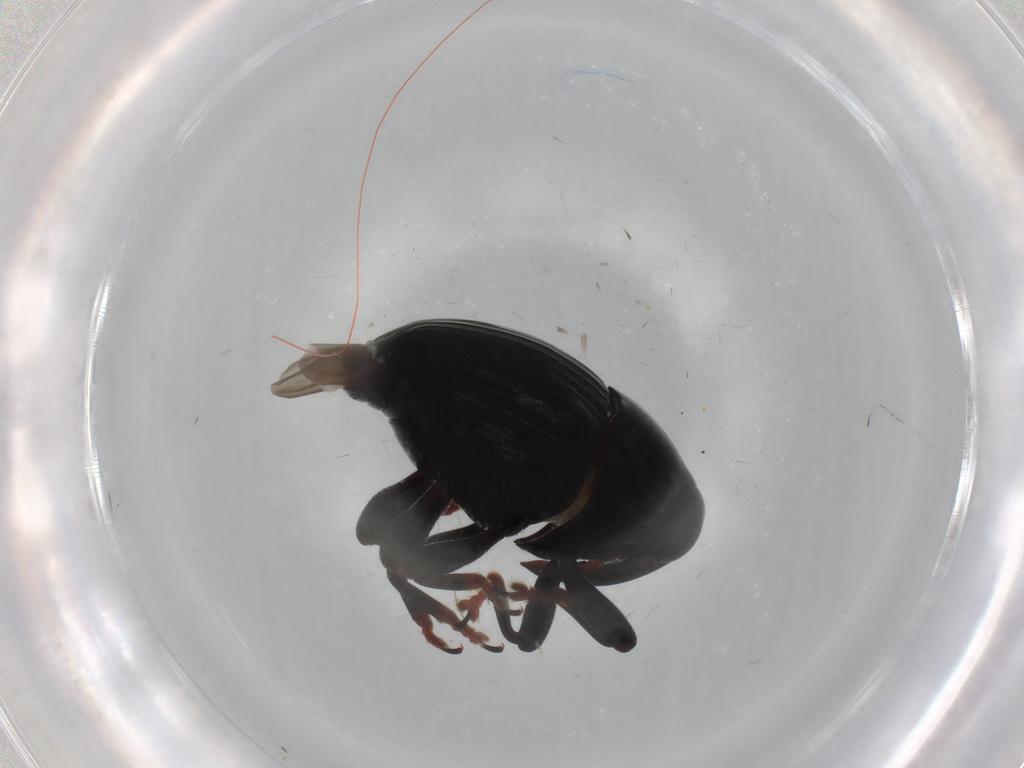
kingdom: Animalia
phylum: Arthropoda
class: Insecta
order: Coleoptera
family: Curculionidae
